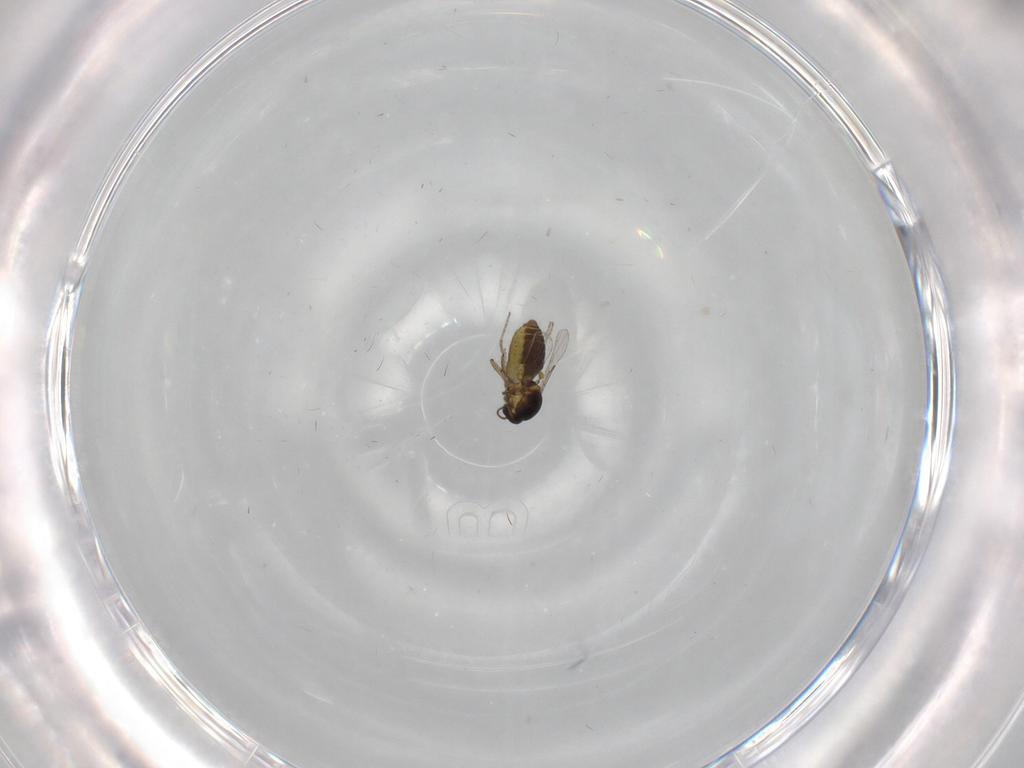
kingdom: Animalia
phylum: Arthropoda
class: Insecta
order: Diptera
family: Ceratopogonidae
